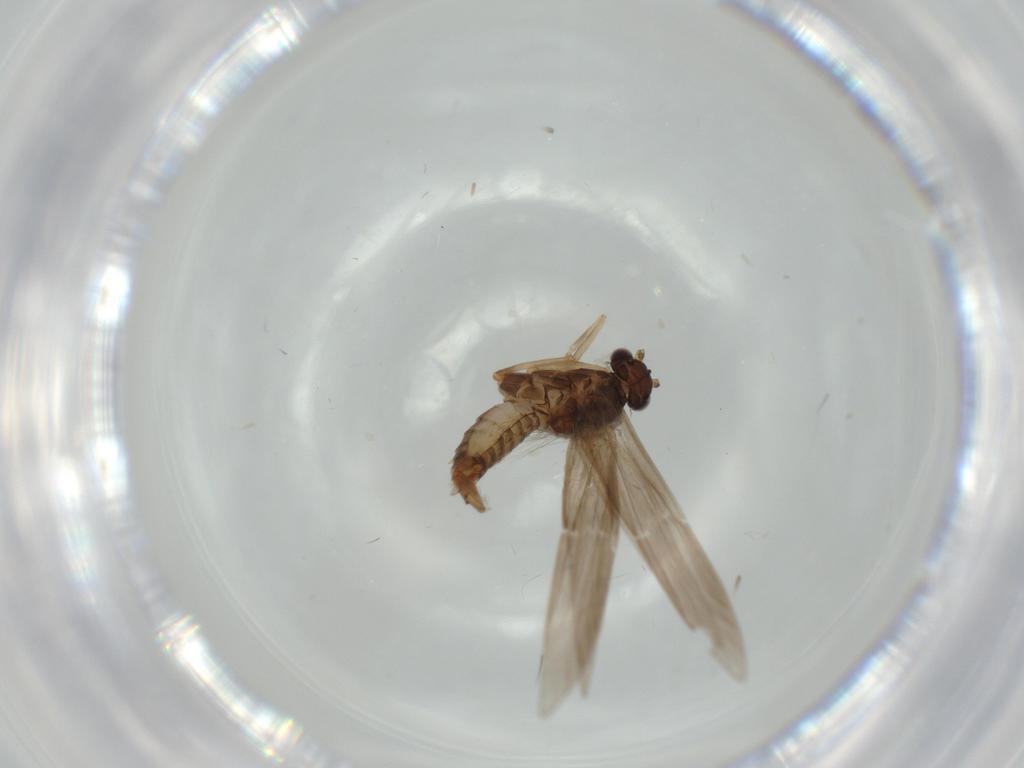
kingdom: Animalia
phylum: Arthropoda
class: Insecta
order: Trichoptera
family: Hydroptilidae
